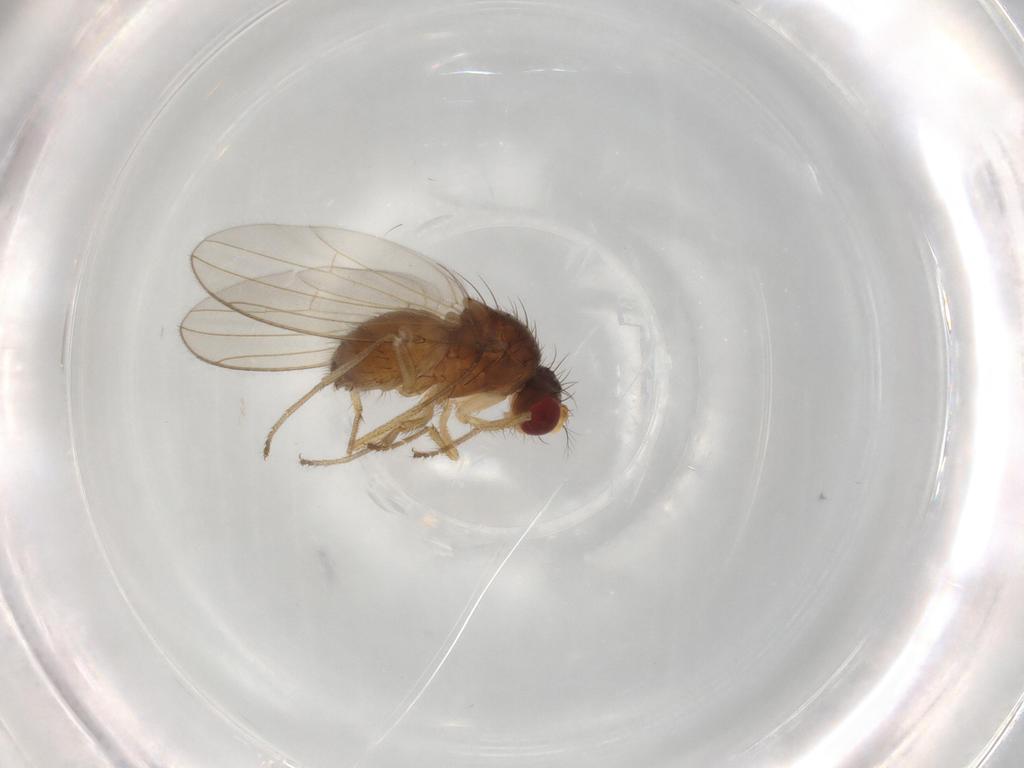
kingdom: Animalia
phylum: Arthropoda
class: Insecta
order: Diptera
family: Drosophilidae
